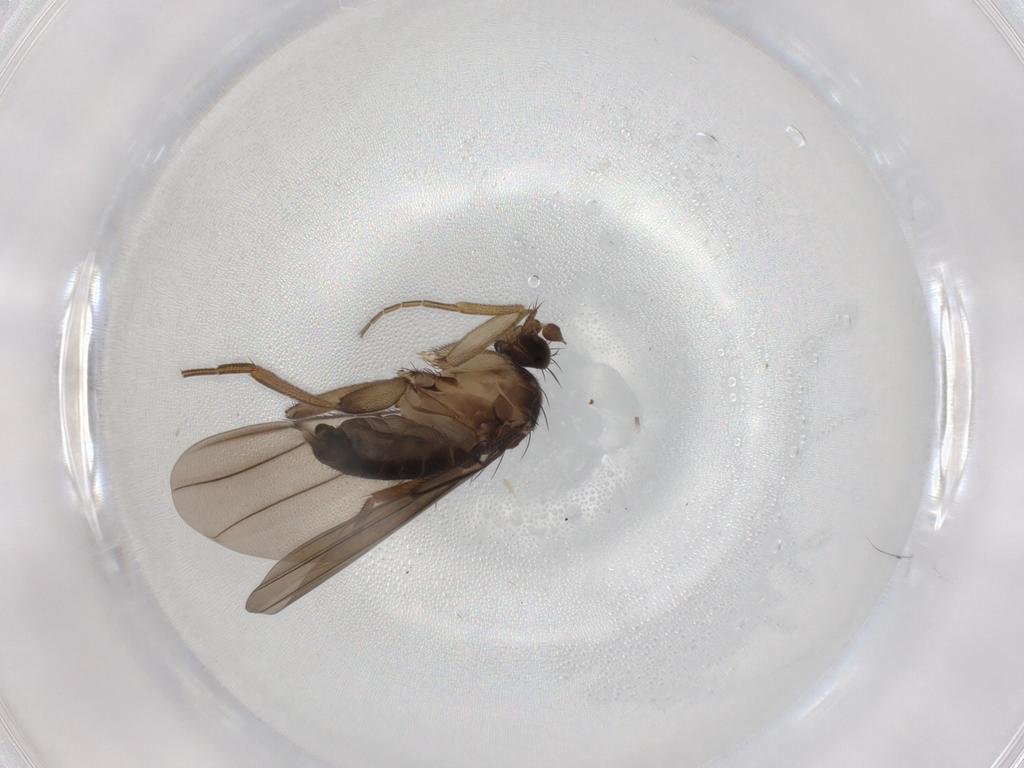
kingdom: Animalia
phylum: Arthropoda
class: Insecta
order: Diptera
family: Phoridae
